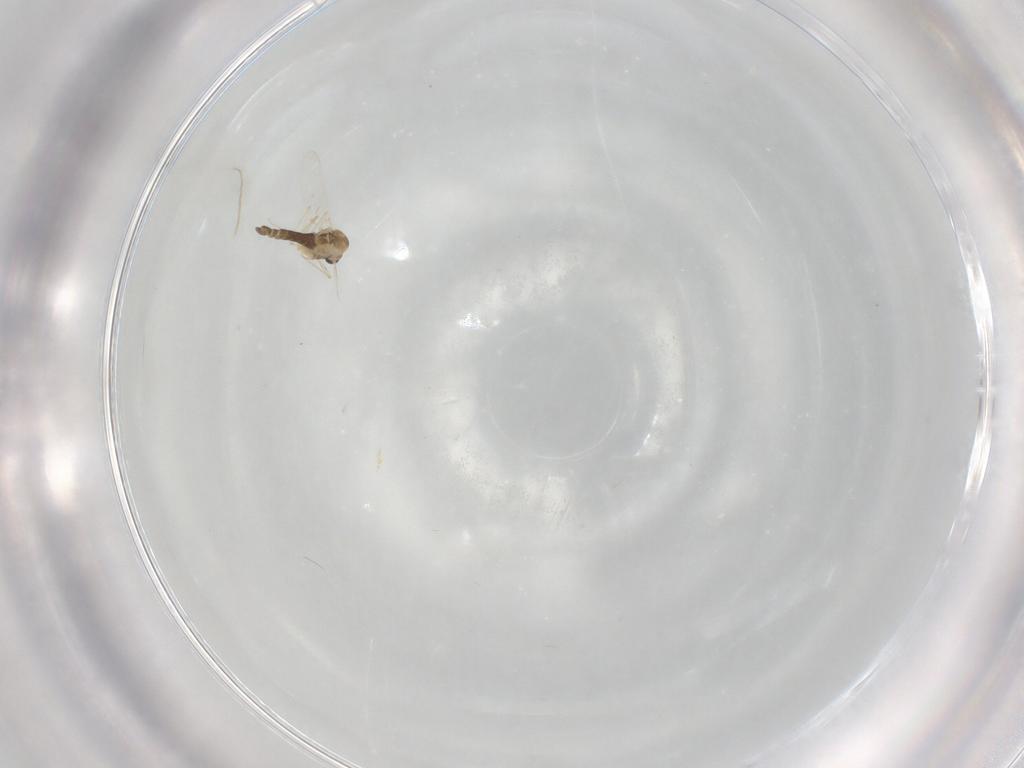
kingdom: Animalia
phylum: Arthropoda
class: Insecta
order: Diptera
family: Chironomidae
